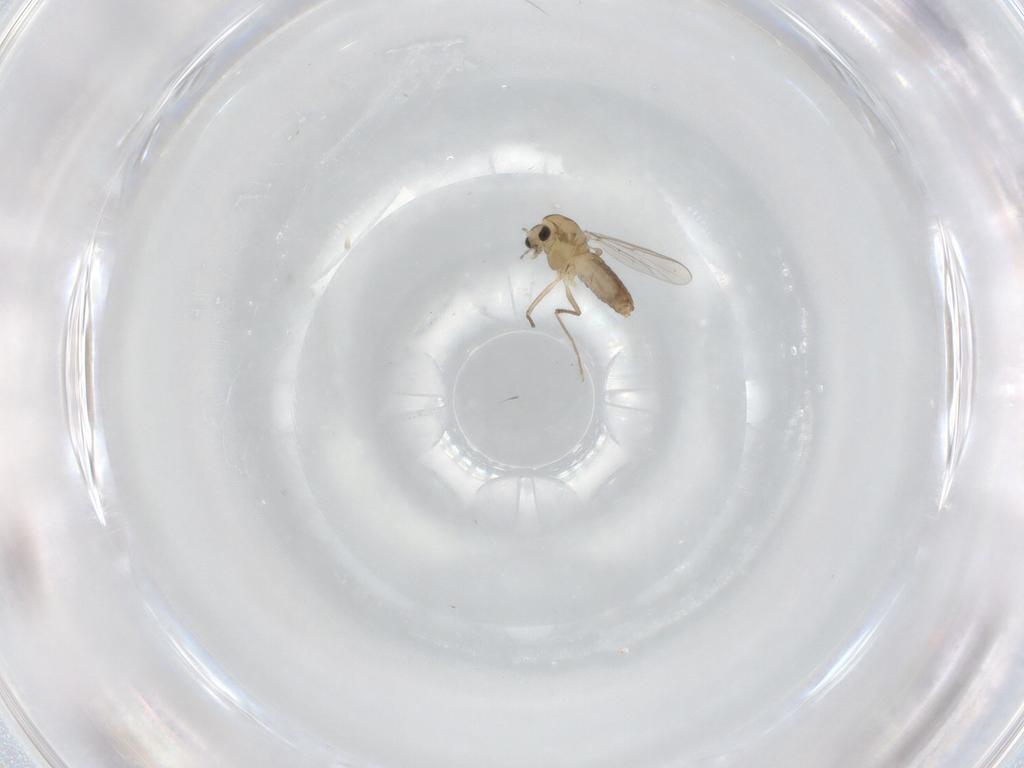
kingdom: Animalia
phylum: Arthropoda
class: Insecta
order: Diptera
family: Chironomidae
